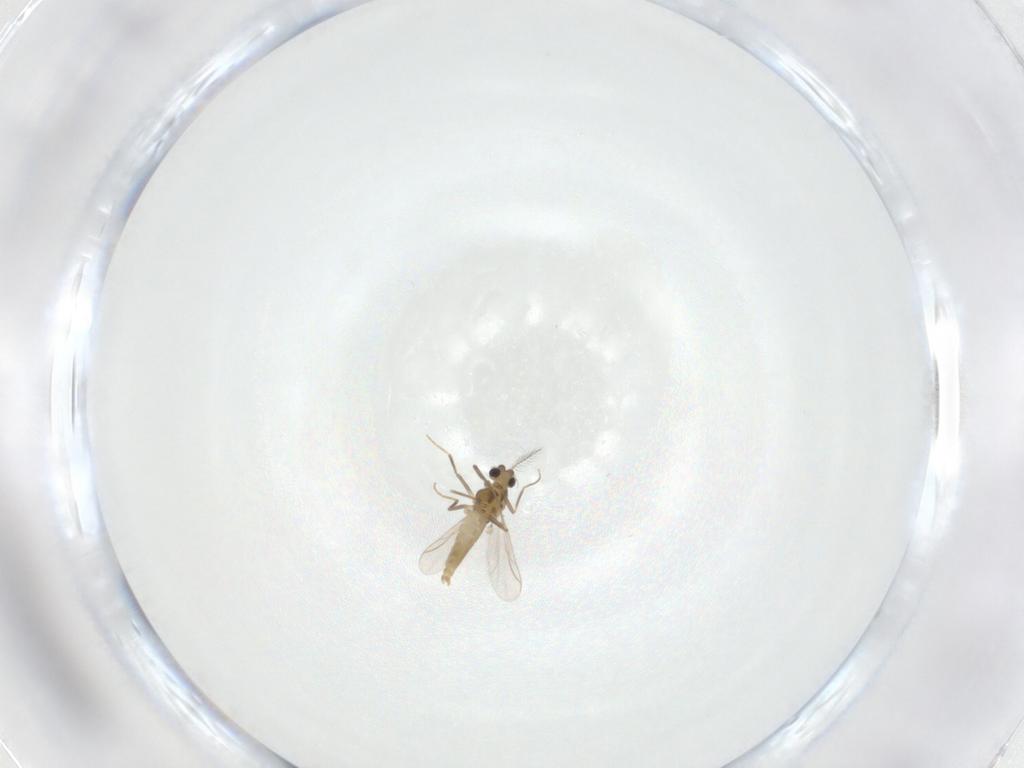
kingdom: Animalia
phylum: Arthropoda
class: Insecta
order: Diptera
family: Chironomidae
